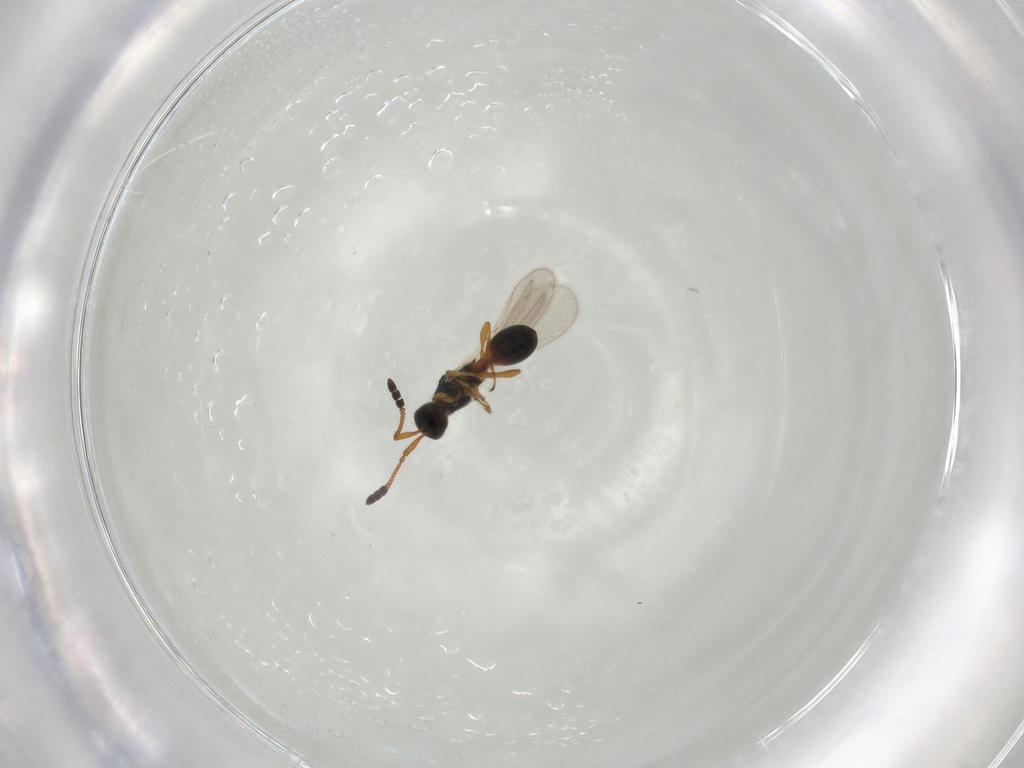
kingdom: Animalia
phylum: Arthropoda
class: Insecta
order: Hymenoptera
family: Diapriidae
